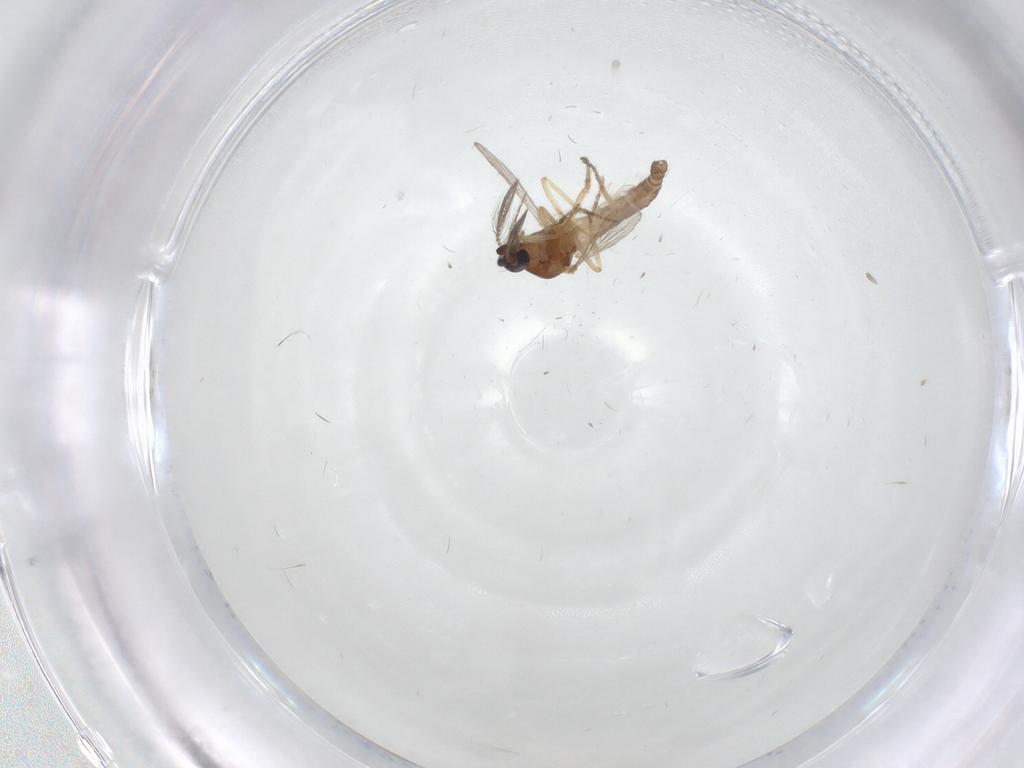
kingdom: Animalia
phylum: Arthropoda
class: Insecta
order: Diptera
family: Ceratopogonidae
